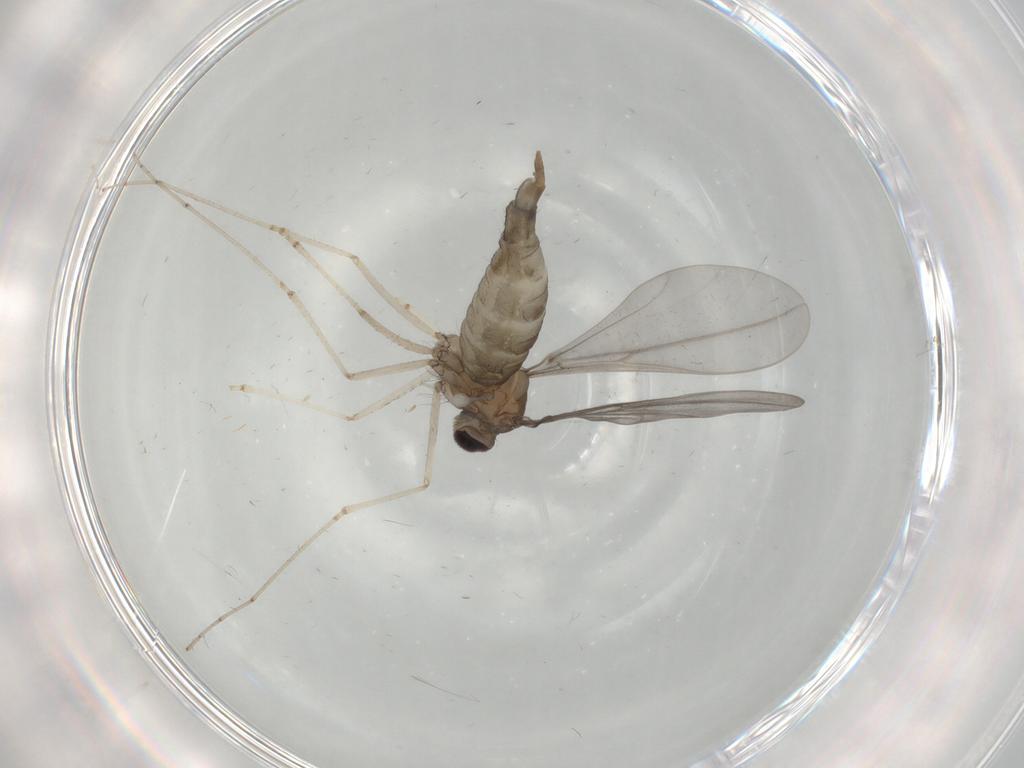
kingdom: Animalia
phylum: Arthropoda
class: Insecta
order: Diptera
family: Cecidomyiidae
